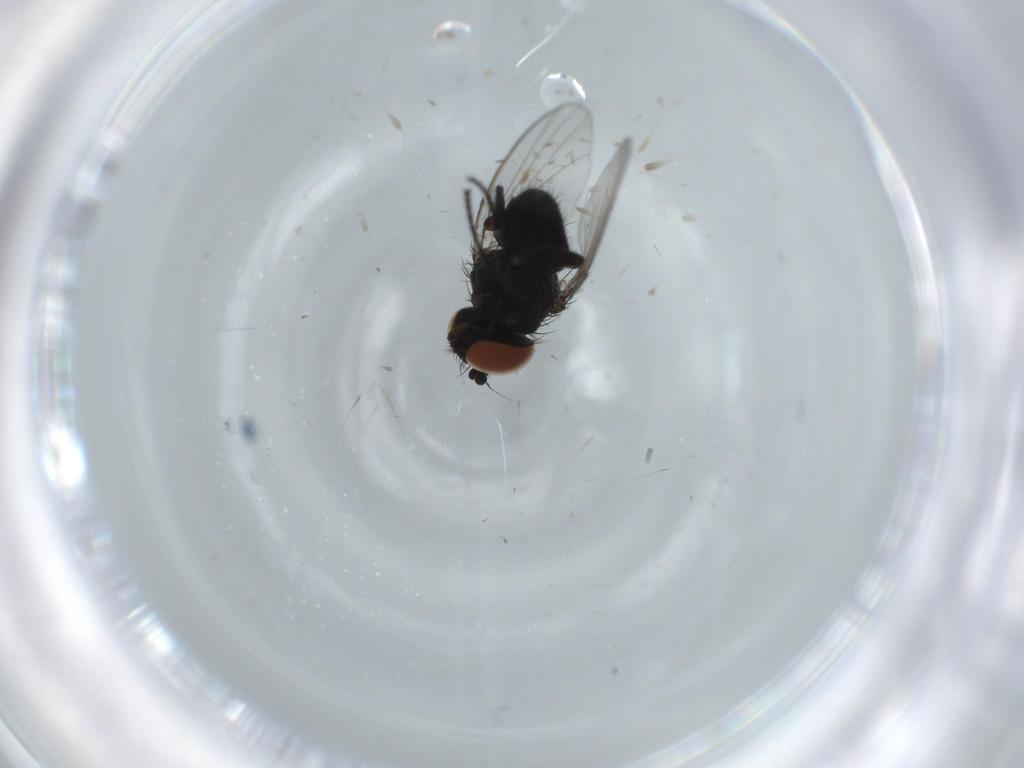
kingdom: Animalia
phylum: Arthropoda
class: Insecta
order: Diptera
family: Milichiidae
